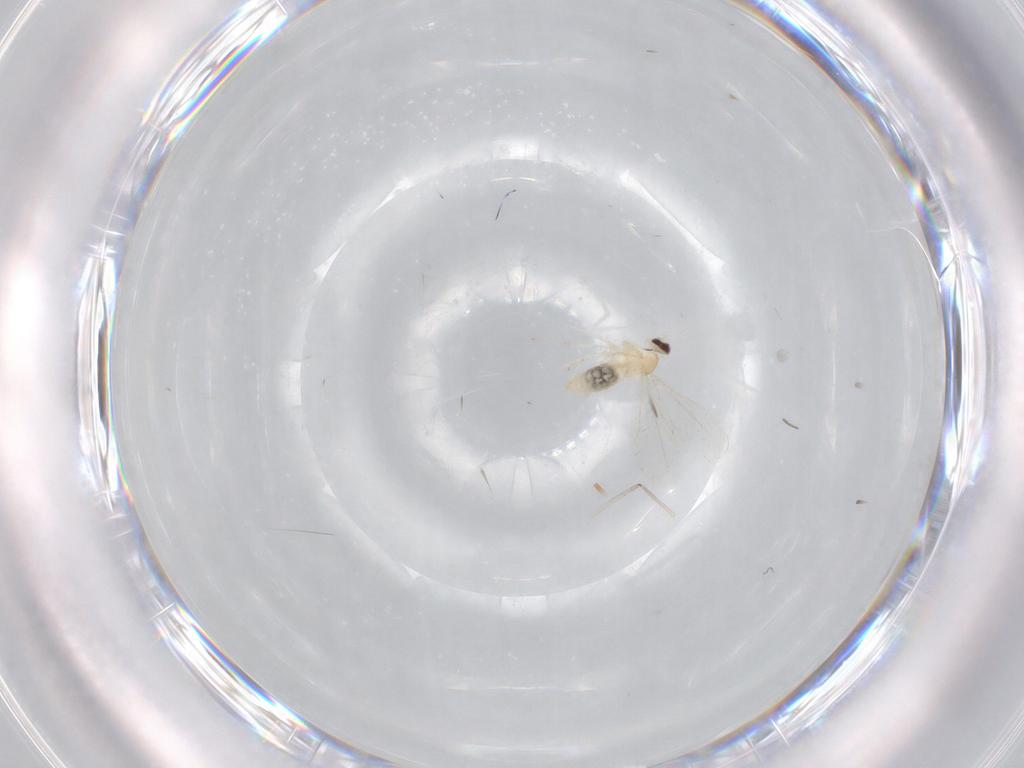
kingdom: Animalia
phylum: Arthropoda
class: Insecta
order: Diptera
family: Cecidomyiidae
